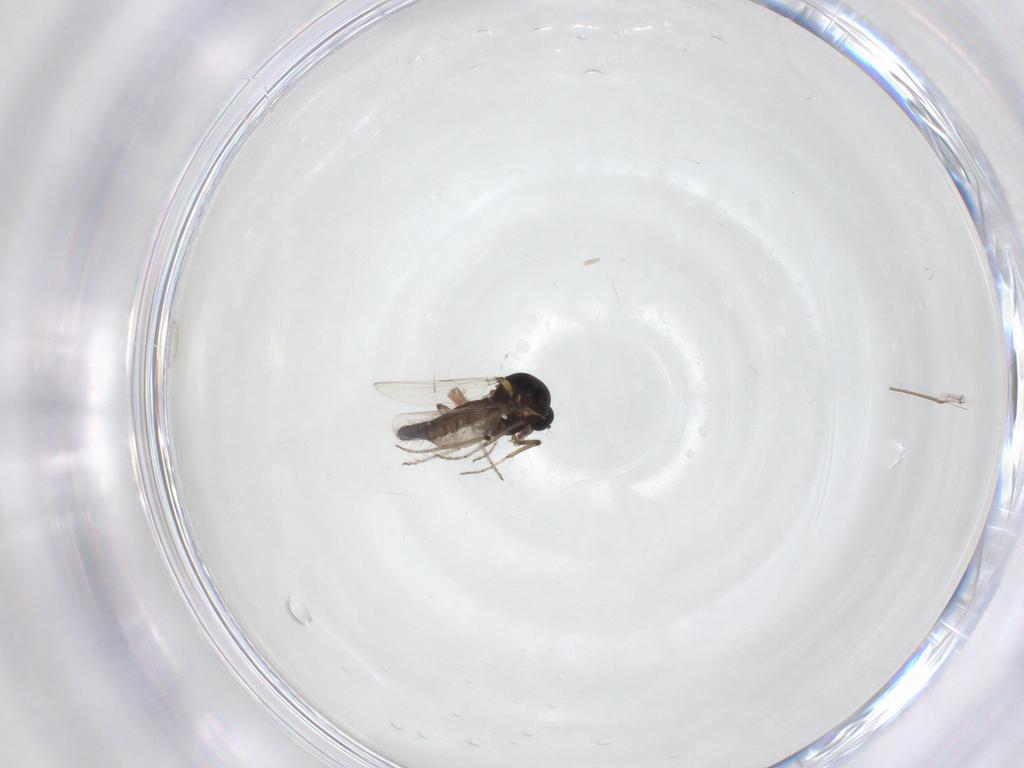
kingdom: Animalia
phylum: Arthropoda
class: Insecta
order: Diptera
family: Ceratopogonidae
